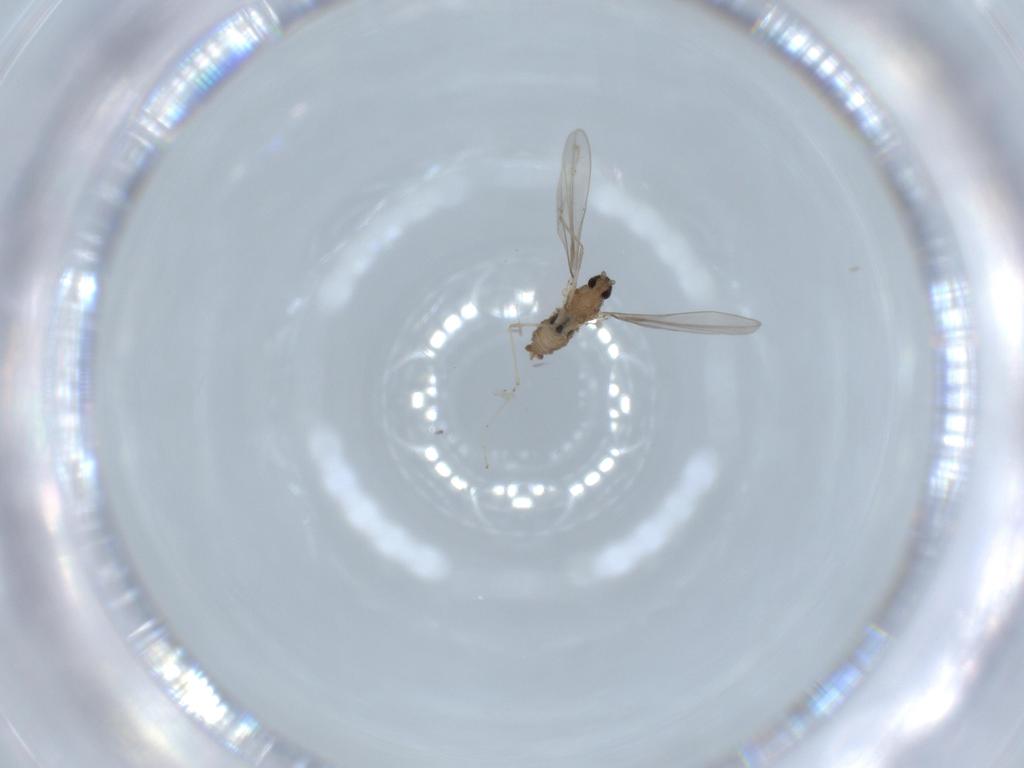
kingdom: Animalia
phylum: Arthropoda
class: Insecta
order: Diptera
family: Cecidomyiidae
